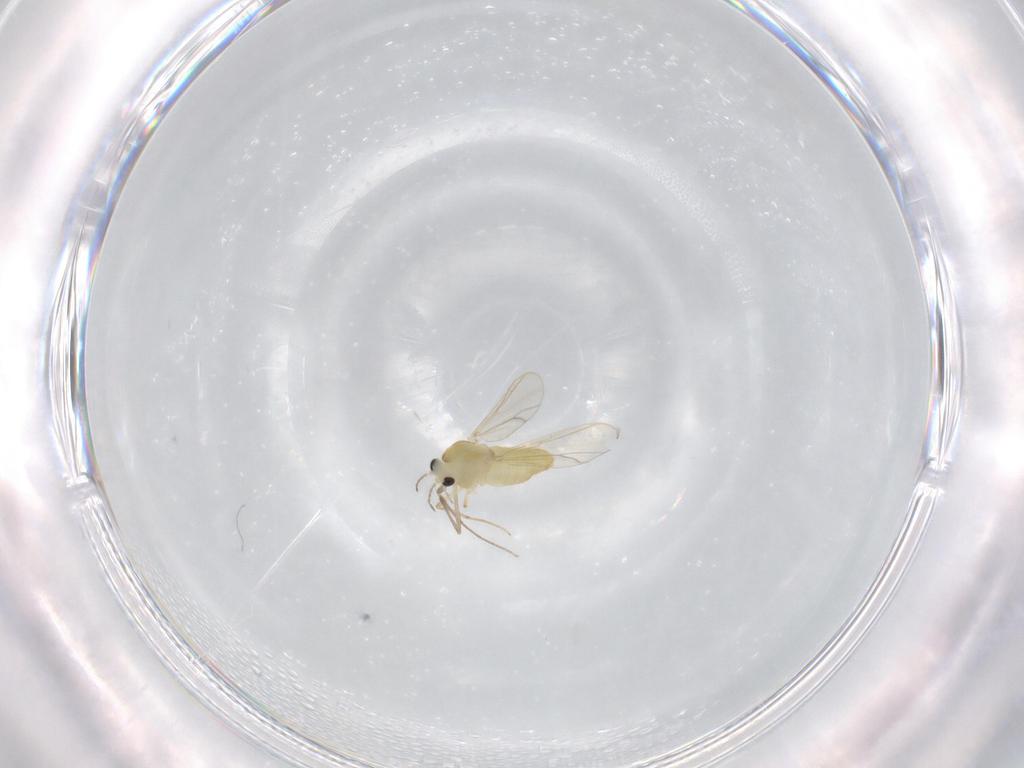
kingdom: Animalia
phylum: Arthropoda
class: Insecta
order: Diptera
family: Chironomidae
